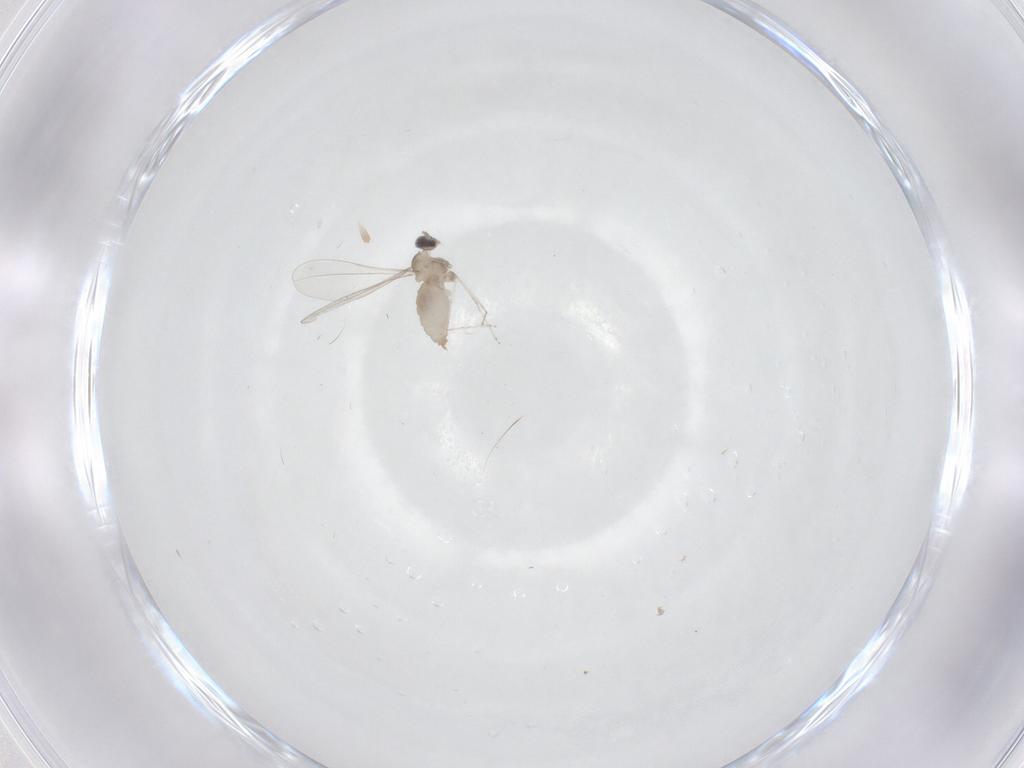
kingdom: Animalia
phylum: Arthropoda
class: Insecta
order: Diptera
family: Cecidomyiidae
